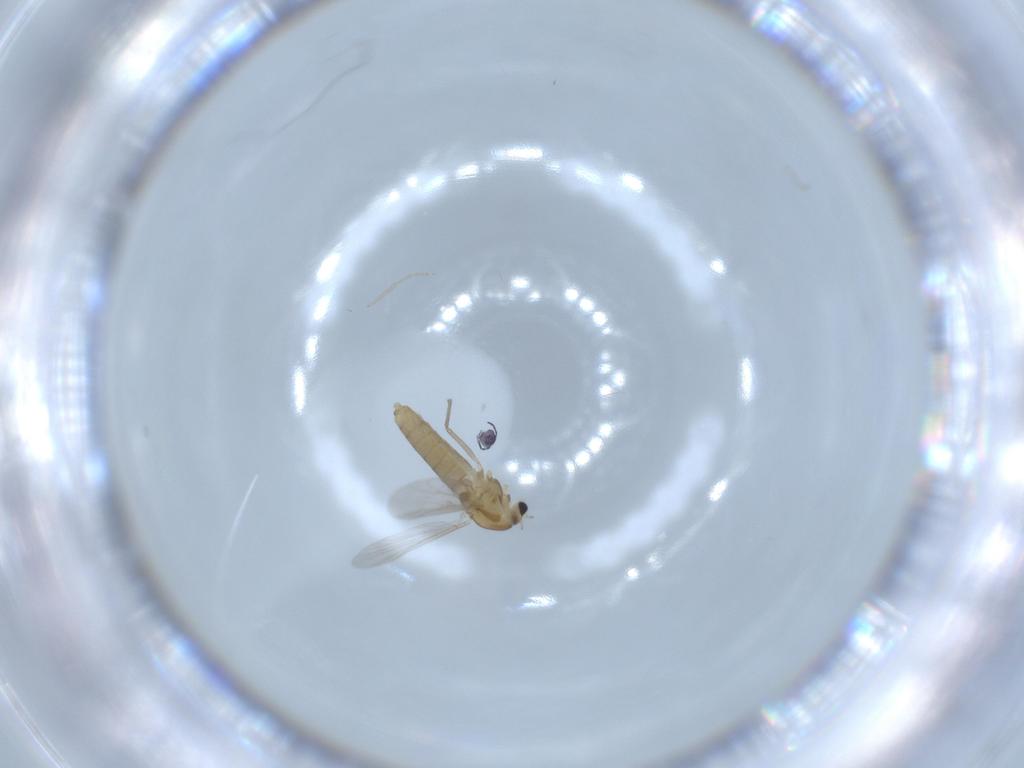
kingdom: Animalia
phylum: Arthropoda
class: Insecta
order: Diptera
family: Chironomidae
